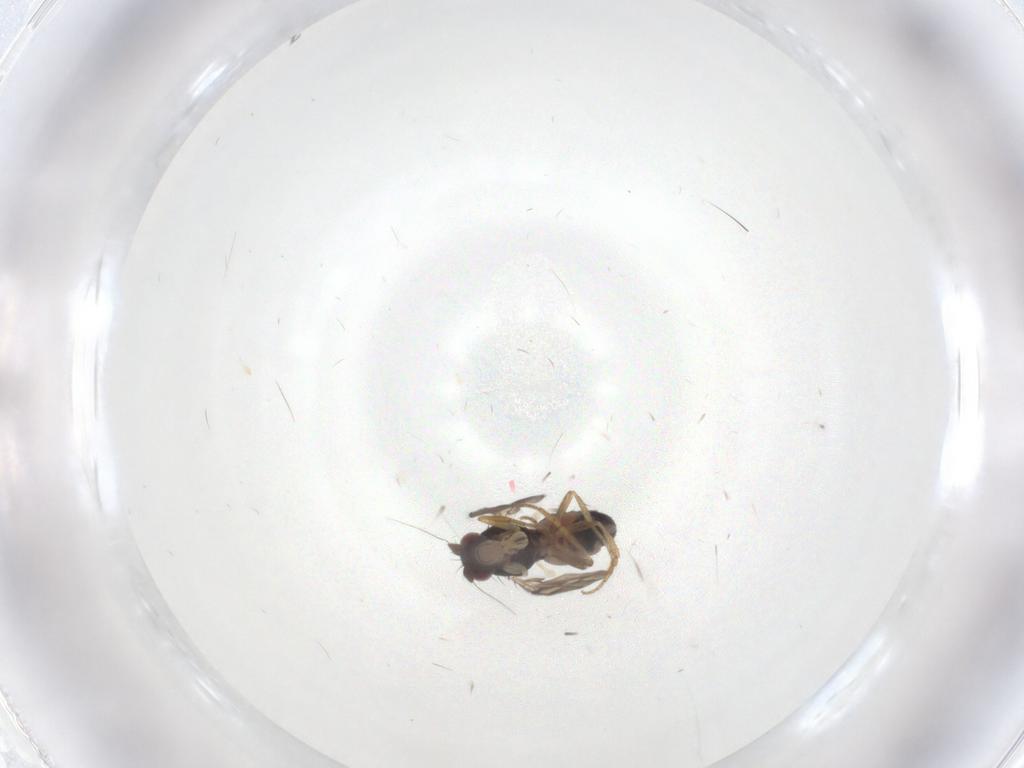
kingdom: Animalia
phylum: Arthropoda
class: Insecta
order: Diptera
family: Sphaeroceridae
